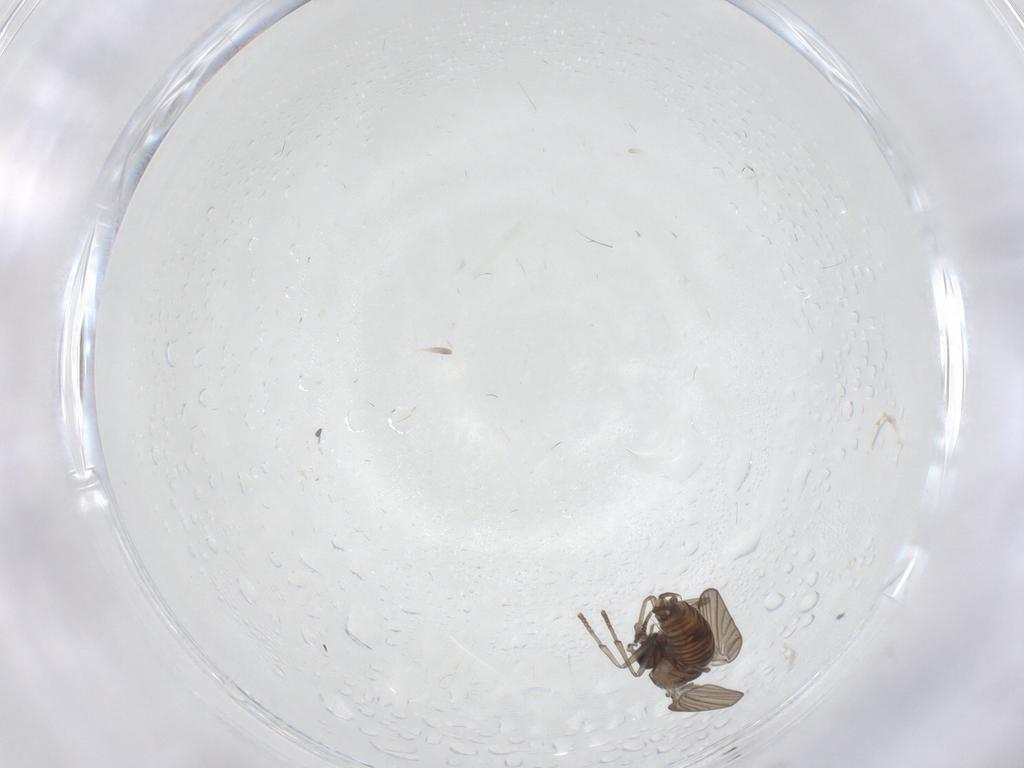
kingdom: Animalia
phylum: Arthropoda
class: Insecta
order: Diptera
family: Psychodidae
